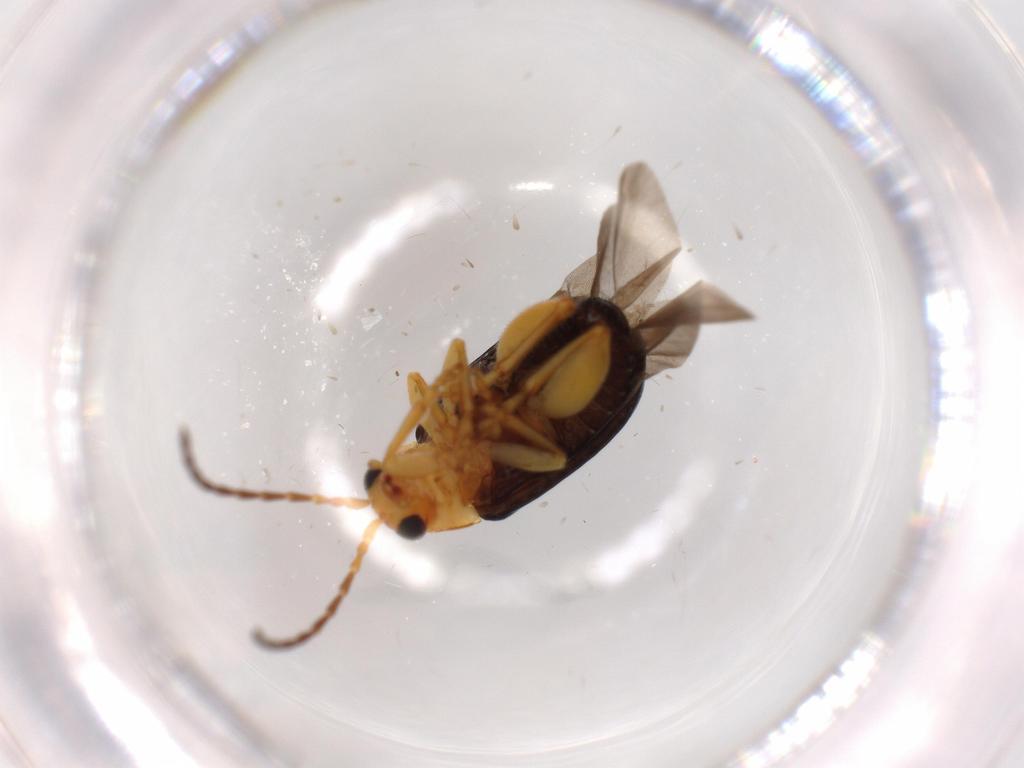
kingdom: Animalia
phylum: Arthropoda
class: Insecta
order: Coleoptera
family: Chrysomelidae
